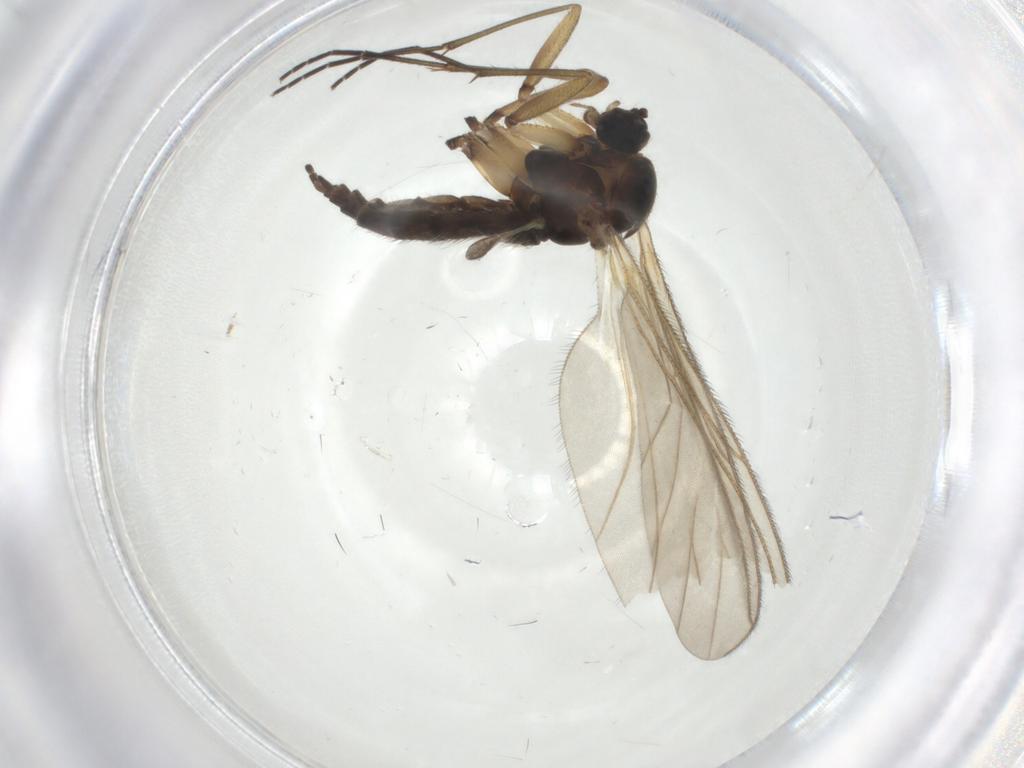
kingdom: Animalia
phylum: Arthropoda
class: Insecta
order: Diptera
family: Sciaridae
